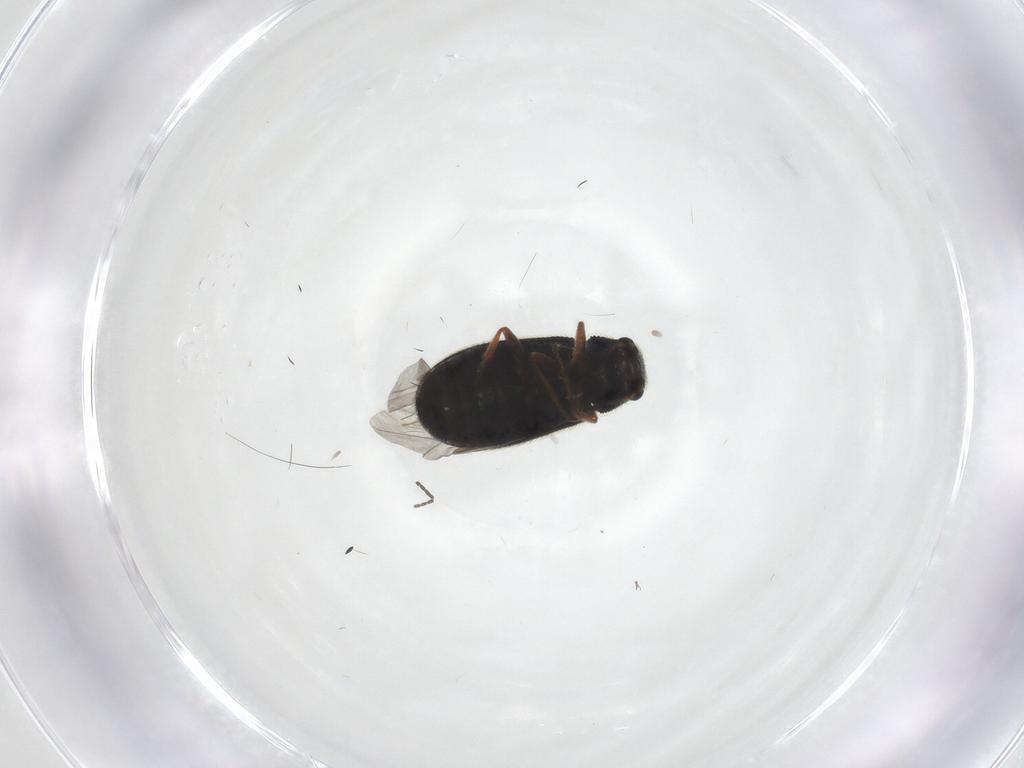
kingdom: Animalia
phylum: Arthropoda
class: Insecta
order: Coleoptera
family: Melyridae
